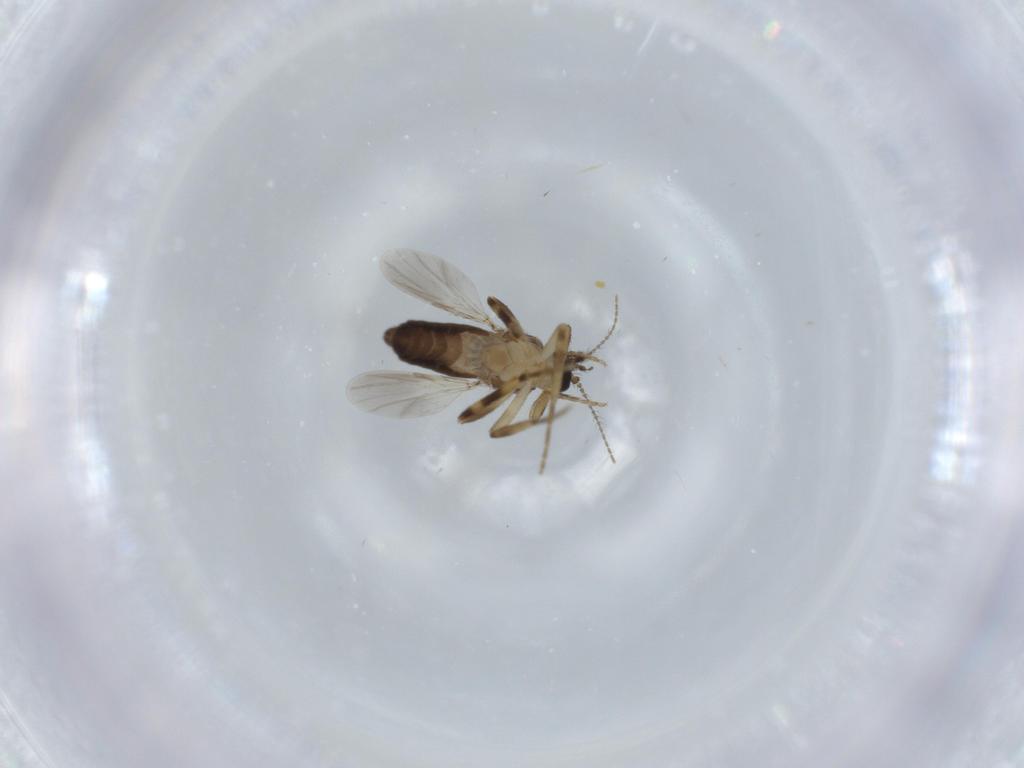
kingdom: Animalia
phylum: Arthropoda
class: Insecta
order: Diptera
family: Ceratopogonidae
